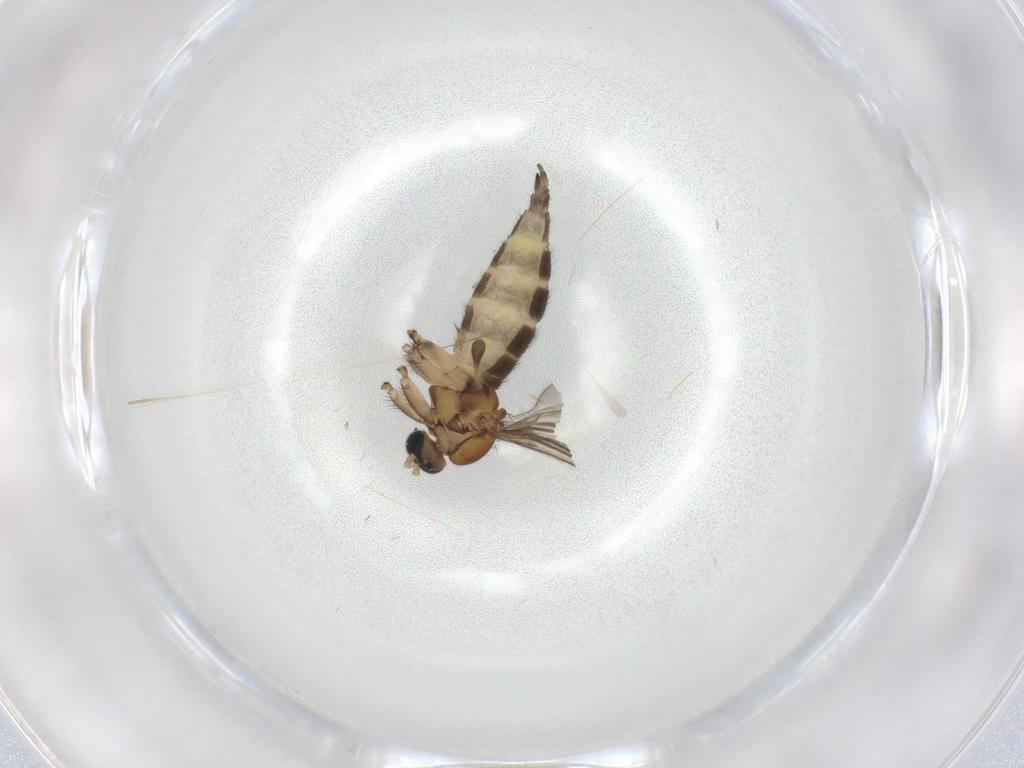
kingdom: Animalia
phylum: Arthropoda
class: Insecta
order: Diptera
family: Sciaridae
